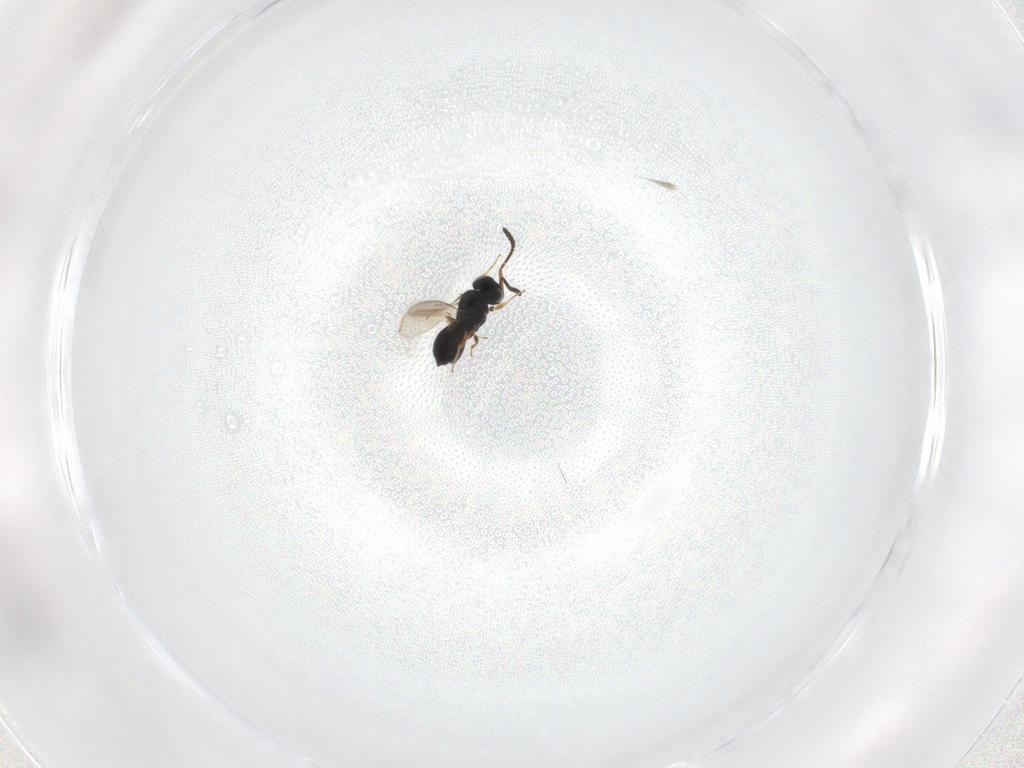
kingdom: Animalia
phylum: Arthropoda
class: Insecta
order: Hymenoptera
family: Scelionidae
